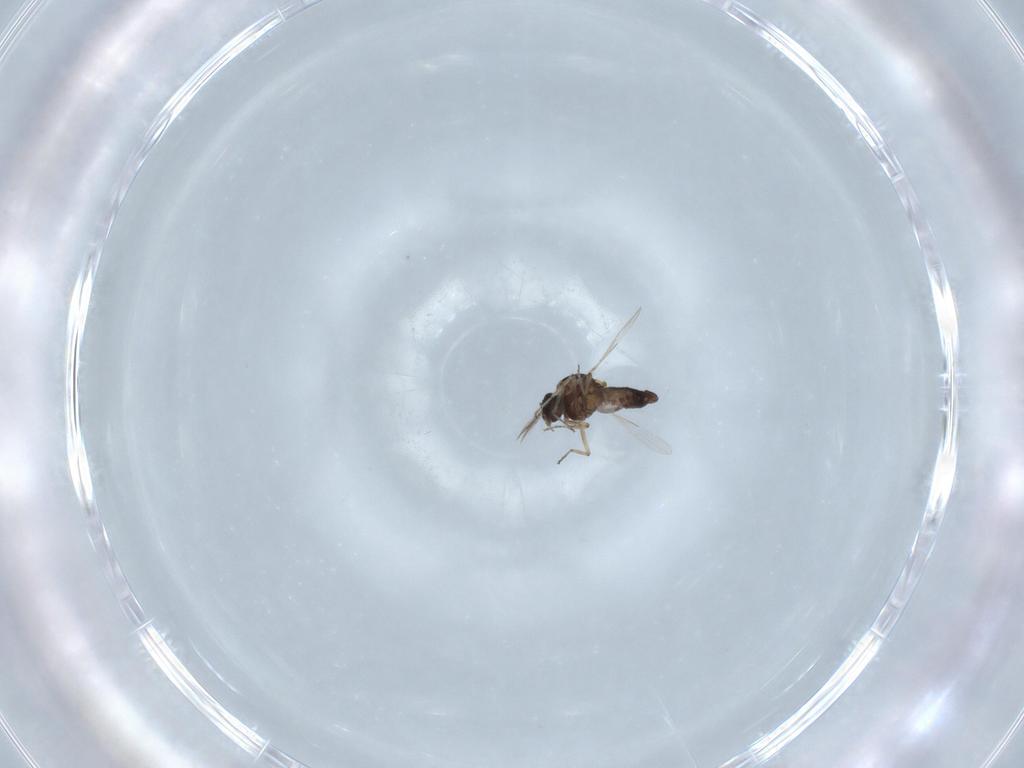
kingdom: Animalia
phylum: Arthropoda
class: Insecta
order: Diptera
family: Ceratopogonidae
